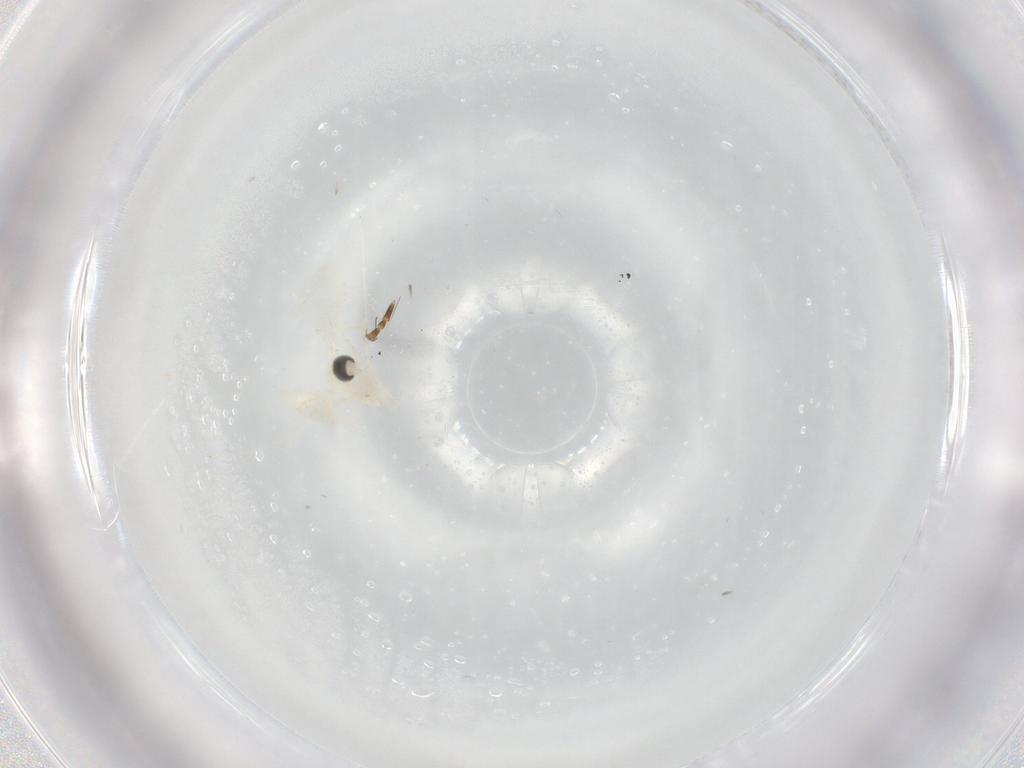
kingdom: Animalia
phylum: Arthropoda
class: Insecta
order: Diptera
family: Cecidomyiidae
